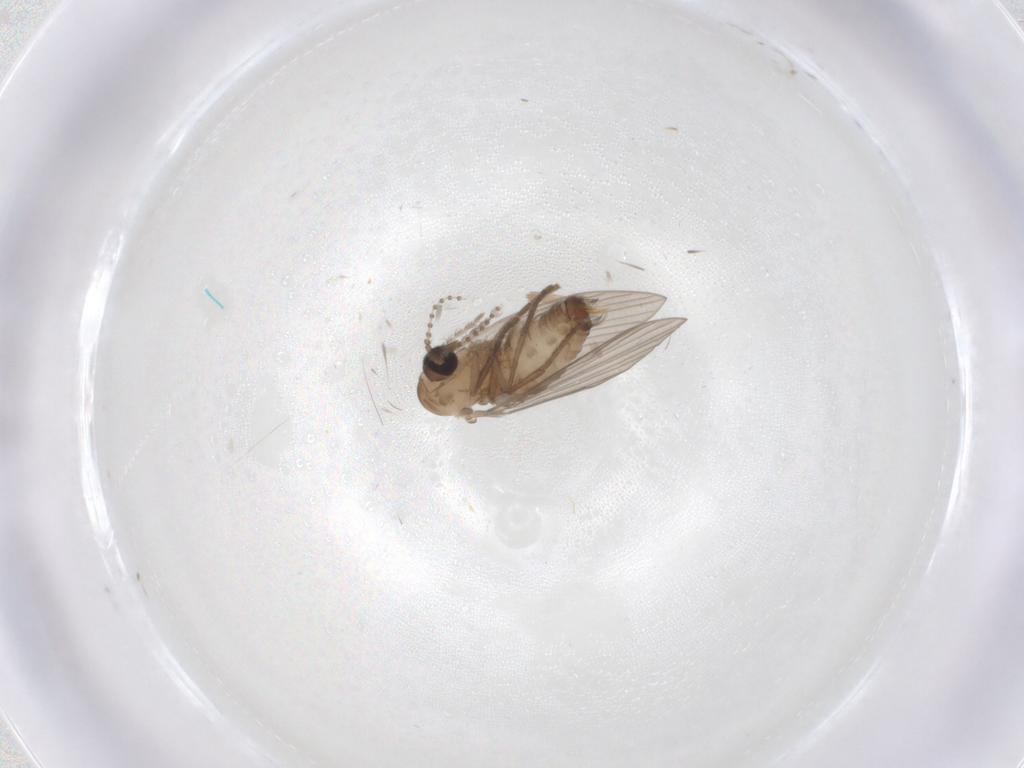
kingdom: Animalia
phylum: Arthropoda
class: Insecta
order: Diptera
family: Psychodidae
